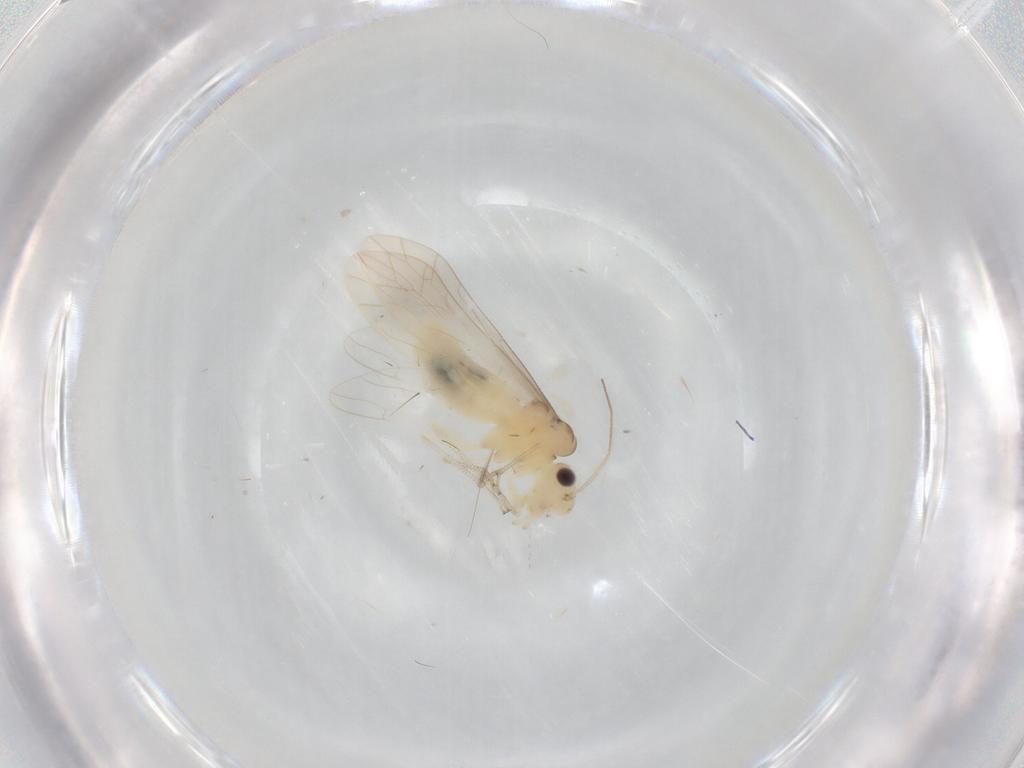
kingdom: Animalia
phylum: Arthropoda
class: Insecta
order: Psocodea
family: Caeciliusidae
